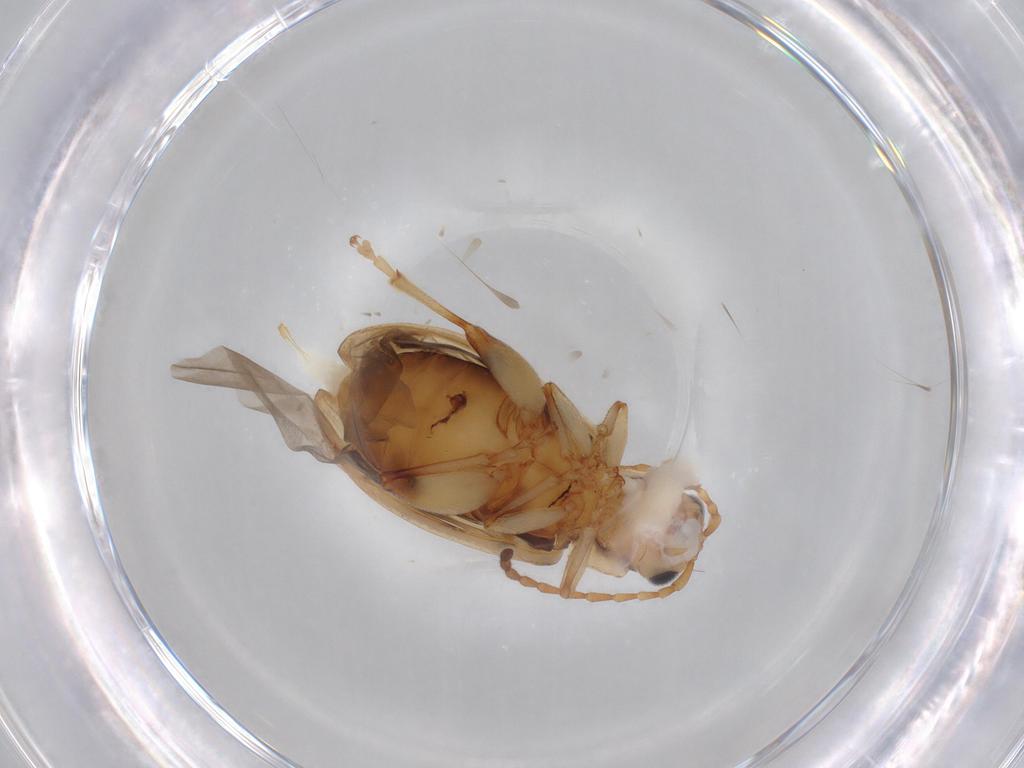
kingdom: Animalia
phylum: Arthropoda
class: Insecta
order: Coleoptera
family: Chrysomelidae
